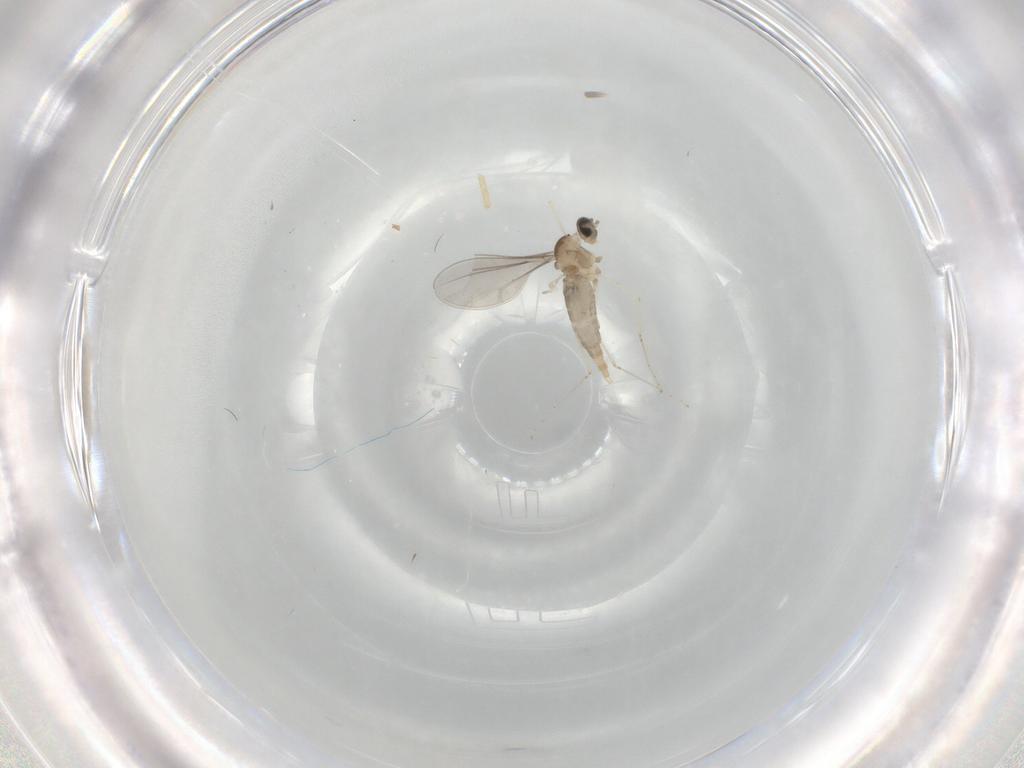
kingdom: Animalia
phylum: Arthropoda
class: Insecta
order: Diptera
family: Cecidomyiidae
